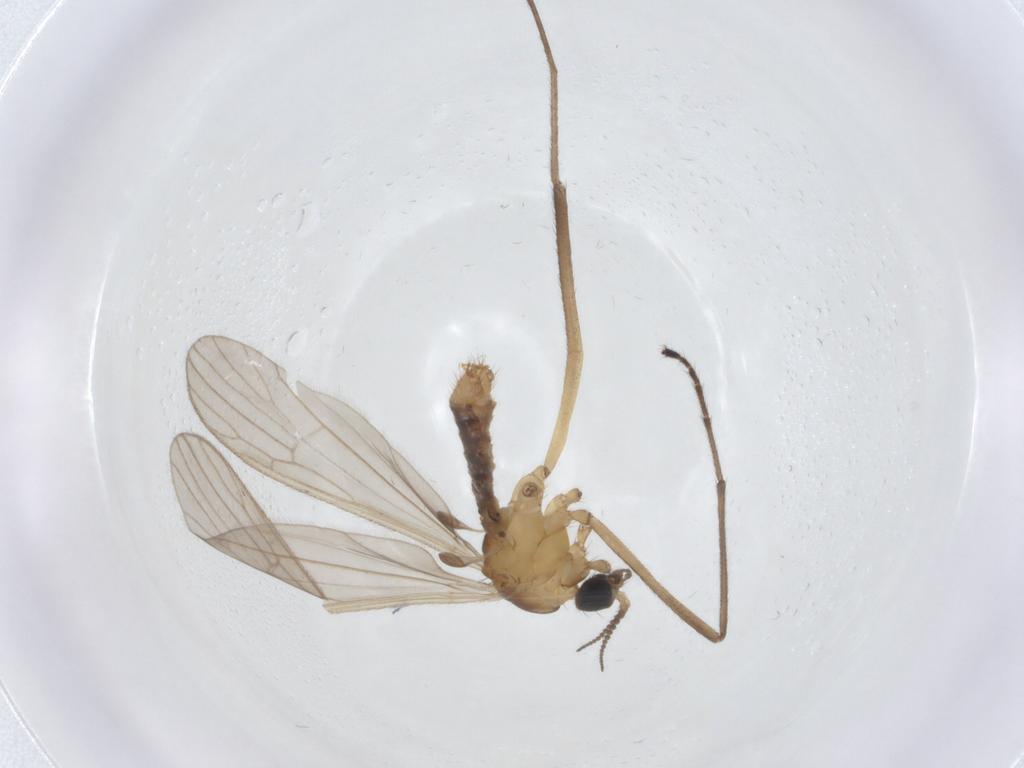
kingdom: Animalia
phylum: Arthropoda
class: Insecta
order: Diptera
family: Limoniidae
